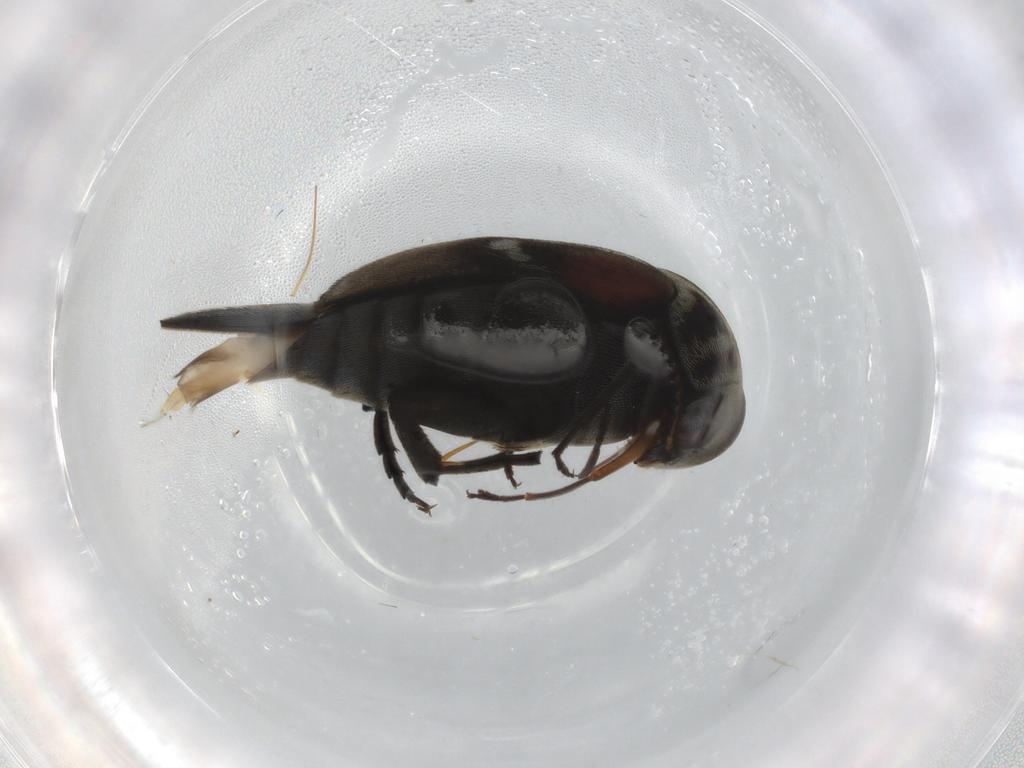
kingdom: Animalia
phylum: Arthropoda
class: Insecta
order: Coleoptera
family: Mordellidae
